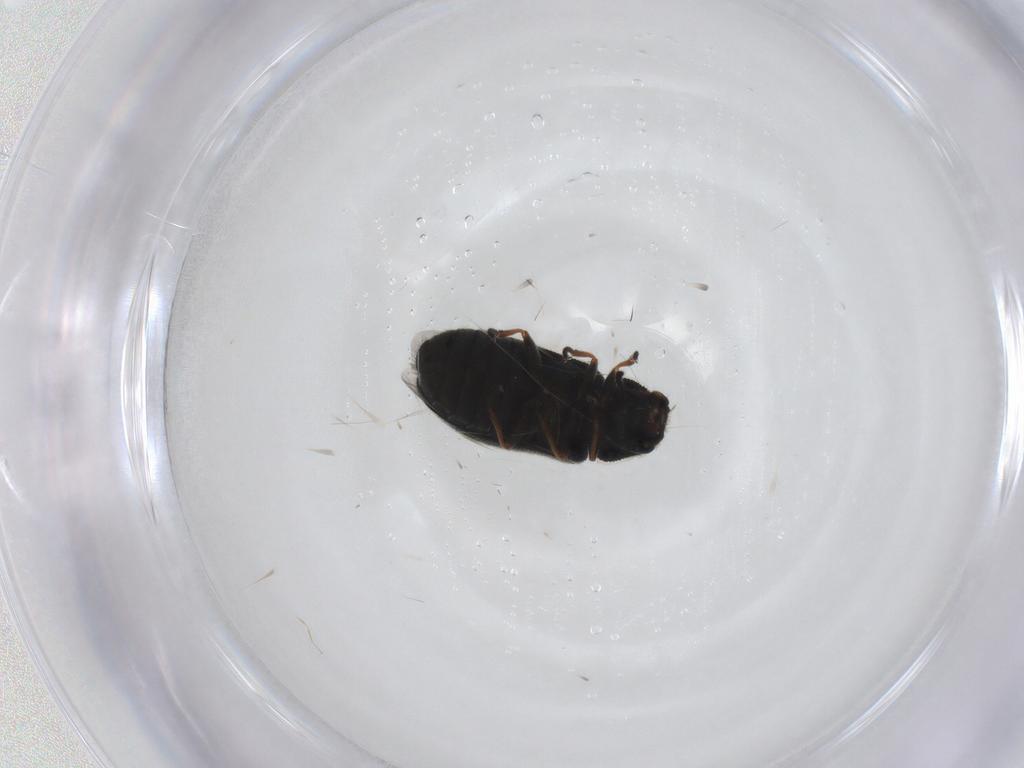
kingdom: Animalia
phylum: Arthropoda
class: Insecta
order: Coleoptera
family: Melyridae
